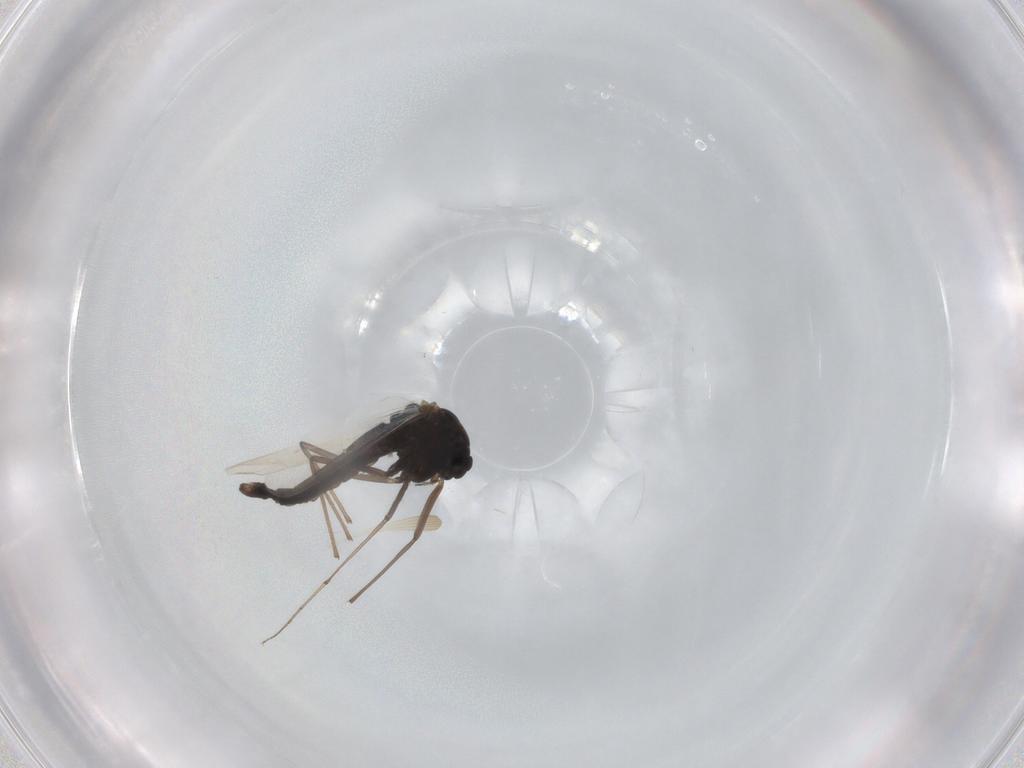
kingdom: Animalia
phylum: Arthropoda
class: Insecta
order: Diptera
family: Chironomidae
